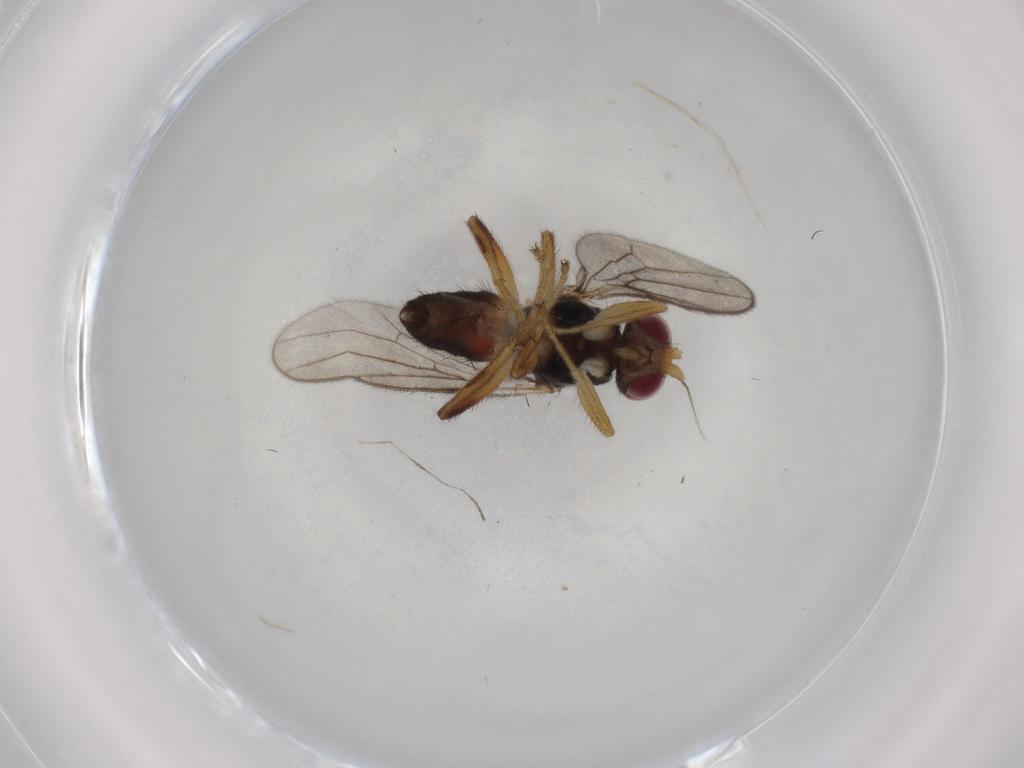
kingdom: Animalia
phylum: Arthropoda
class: Insecta
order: Diptera
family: Chloropidae
